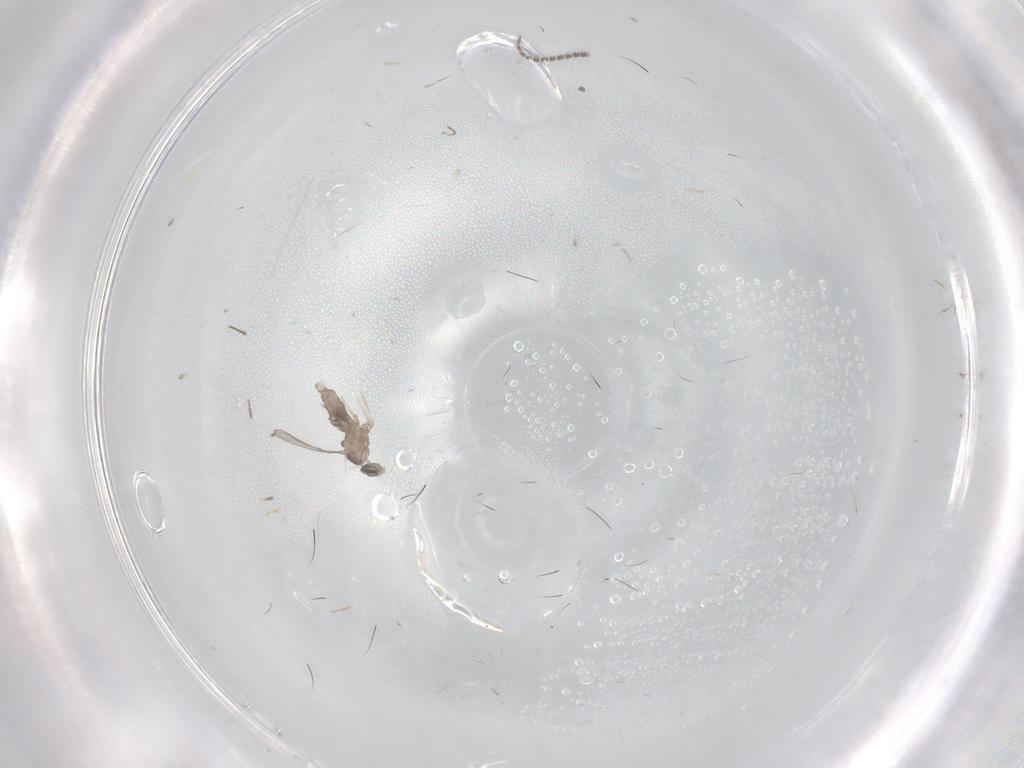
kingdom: Animalia
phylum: Arthropoda
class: Insecta
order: Diptera
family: Cecidomyiidae
